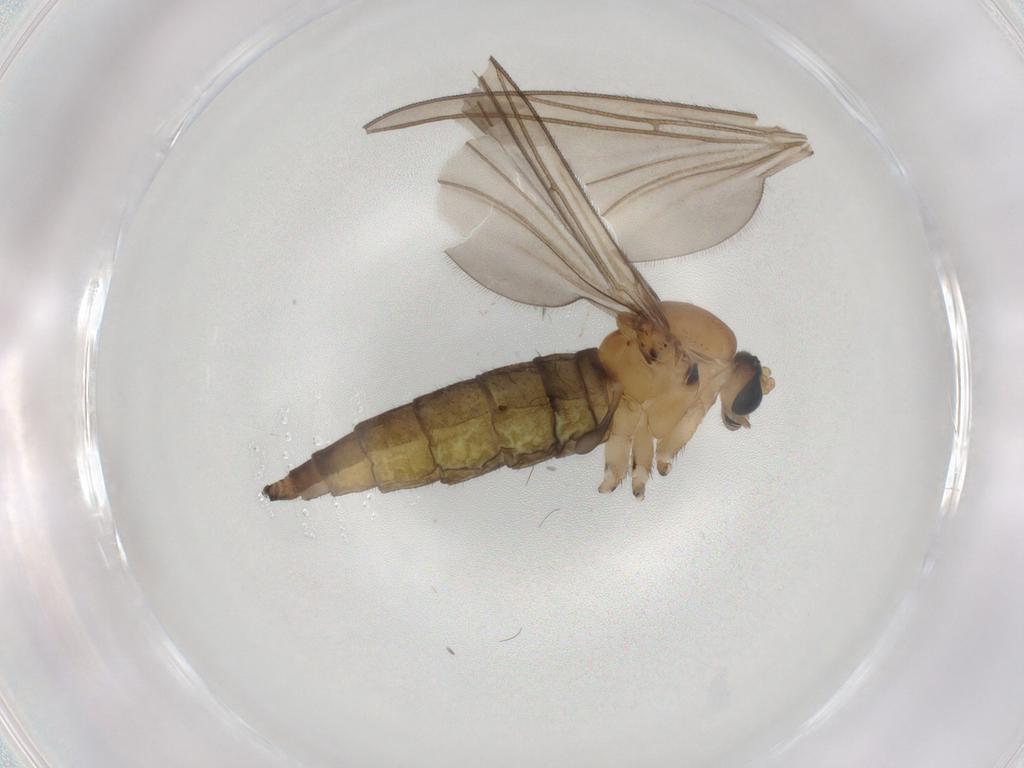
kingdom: Animalia
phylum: Arthropoda
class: Insecta
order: Diptera
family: Sciaridae
